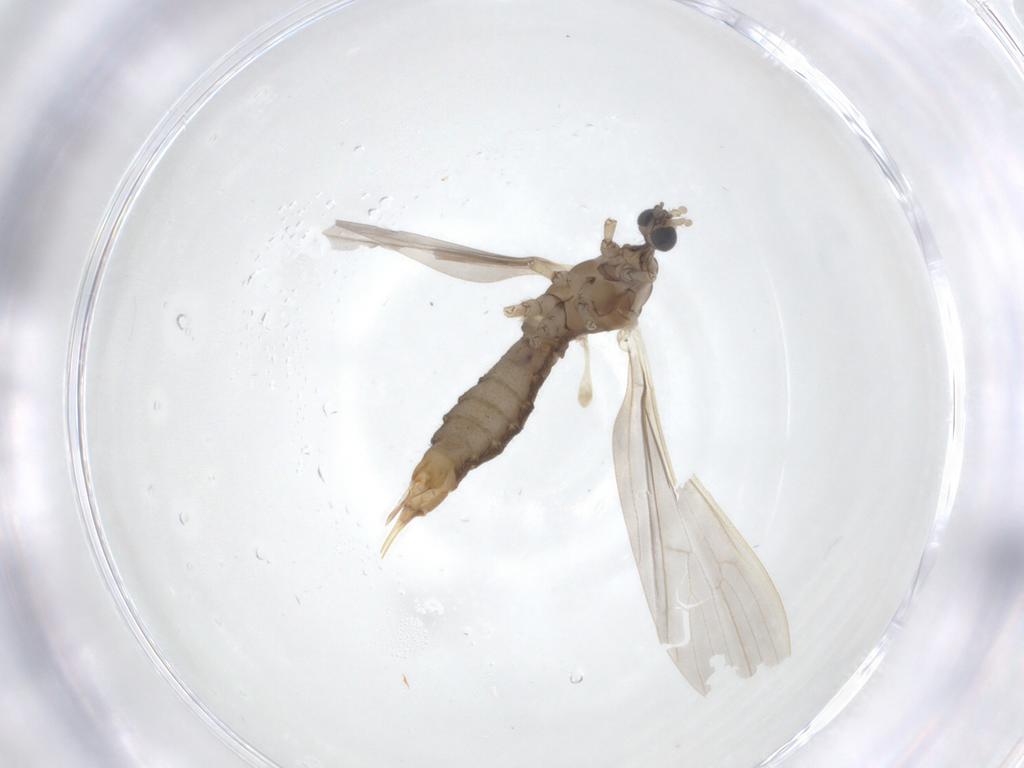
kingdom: Animalia
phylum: Arthropoda
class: Insecta
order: Diptera
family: Limoniidae
